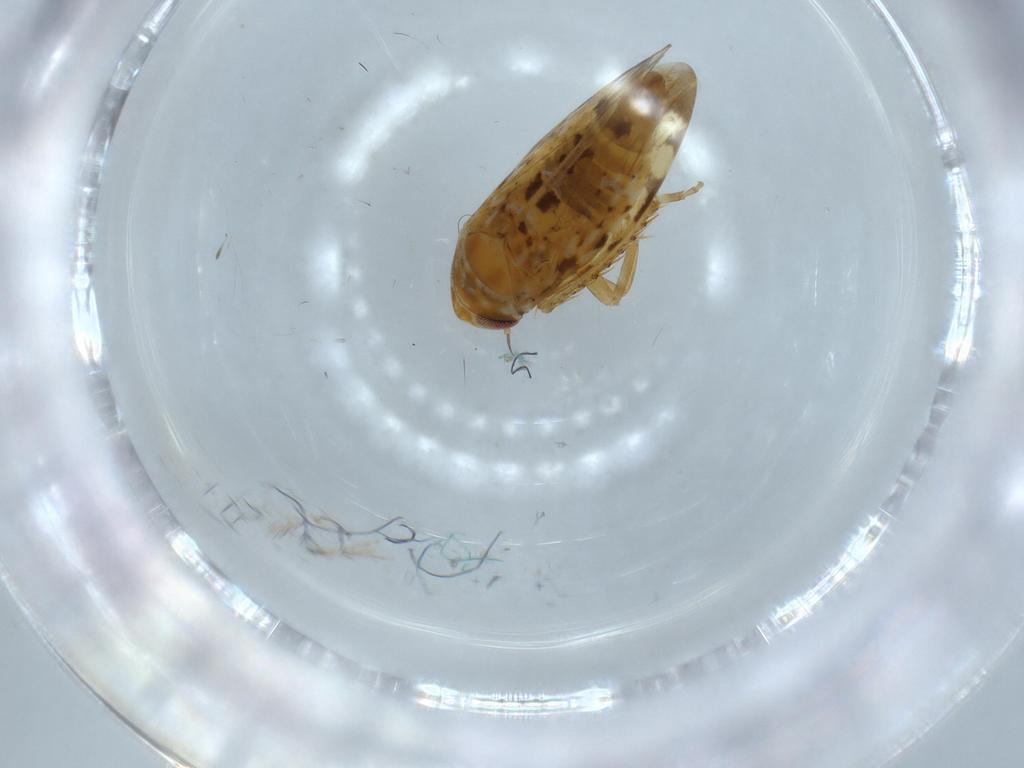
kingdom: Animalia
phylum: Arthropoda
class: Insecta
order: Hemiptera
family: Cicadellidae
